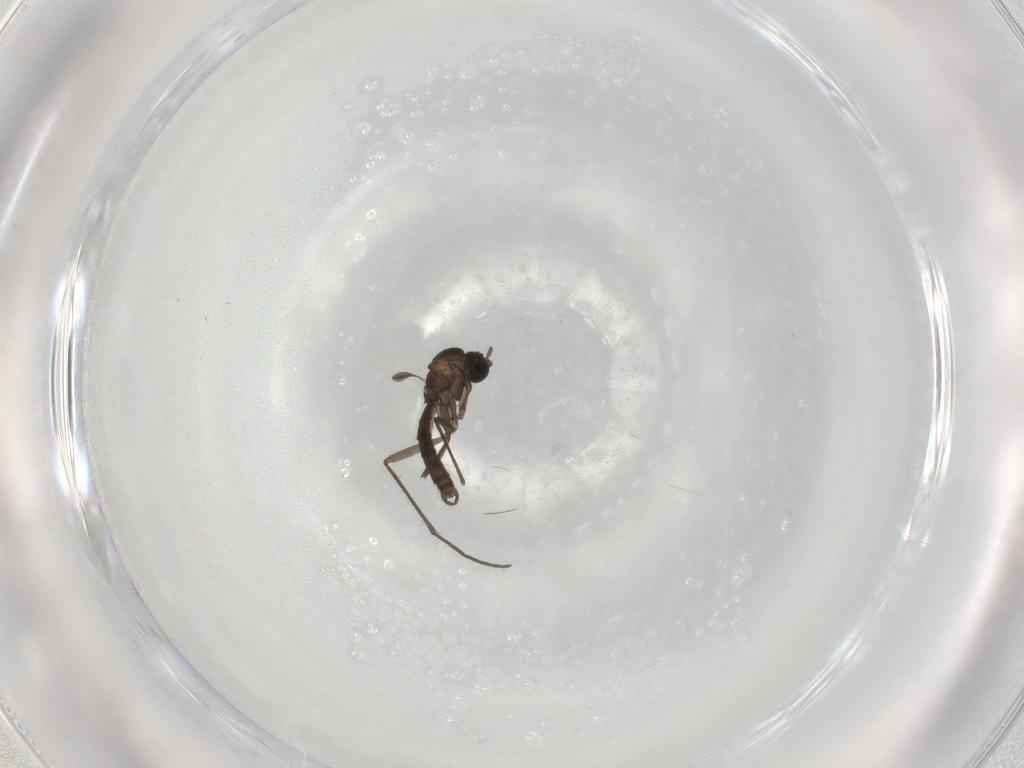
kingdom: Animalia
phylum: Arthropoda
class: Insecta
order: Diptera
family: Sciaridae
